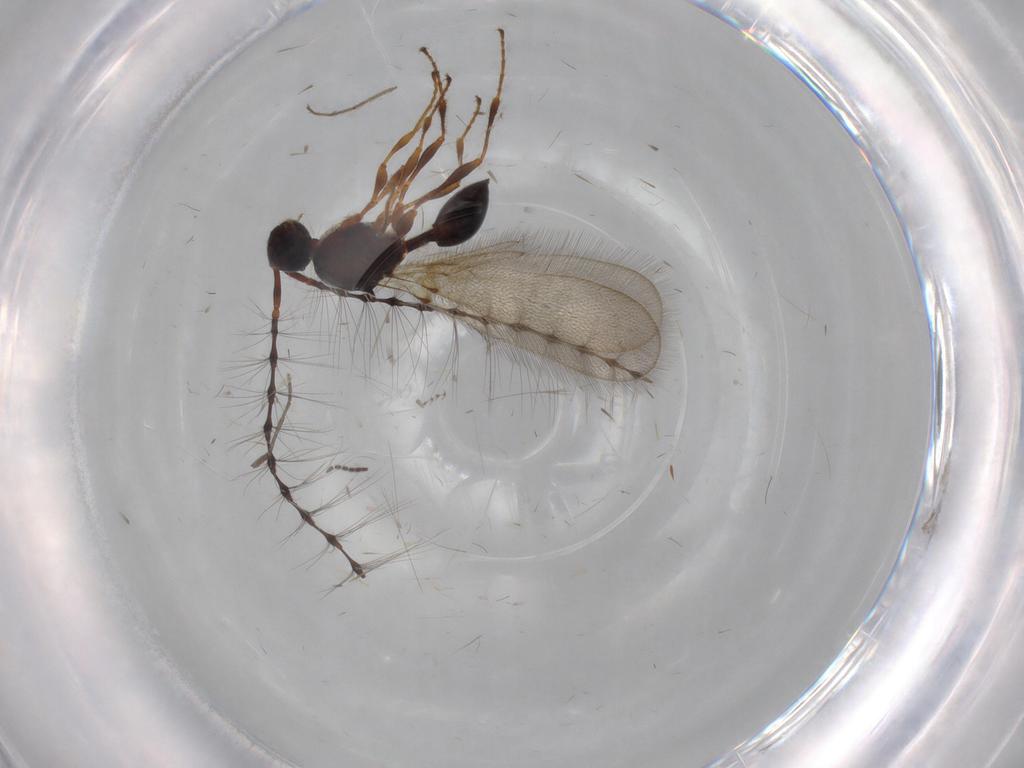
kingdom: Animalia
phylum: Arthropoda
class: Insecta
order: Hymenoptera
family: Diapriidae
